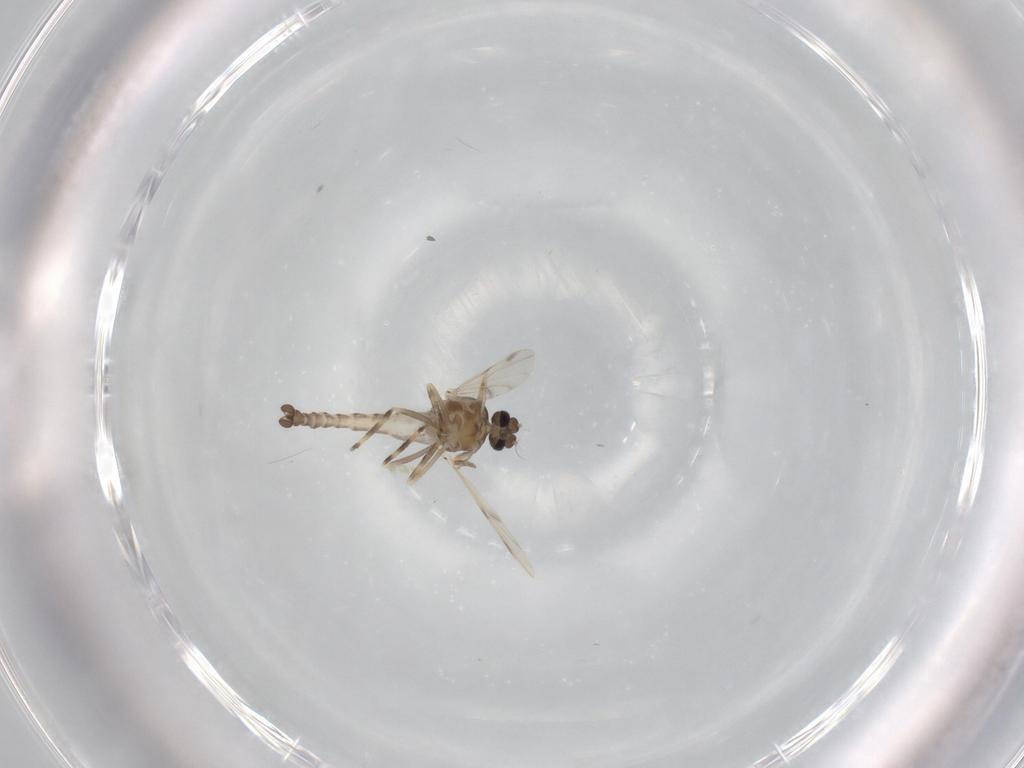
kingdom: Animalia
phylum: Arthropoda
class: Insecta
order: Diptera
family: Ceratopogonidae
